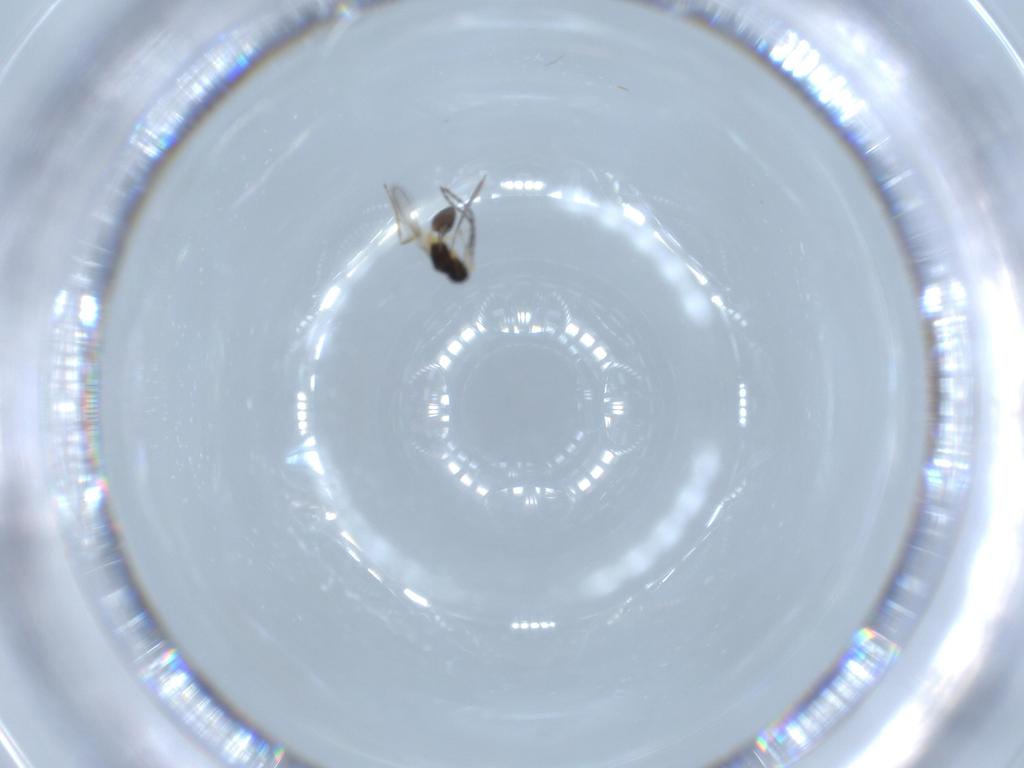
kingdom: Animalia
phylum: Arthropoda
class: Insecta
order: Hymenoptera
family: Mymaridae
